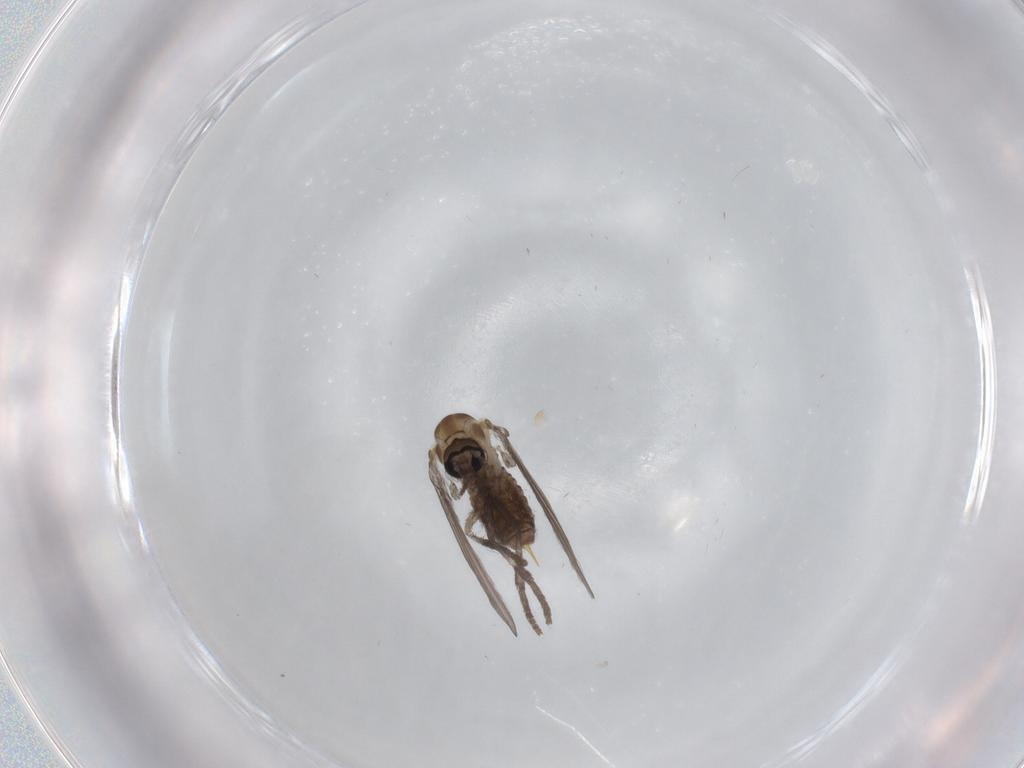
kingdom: Animalia
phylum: Arthropoda
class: Insecta
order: Diptera
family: Psychodidae
